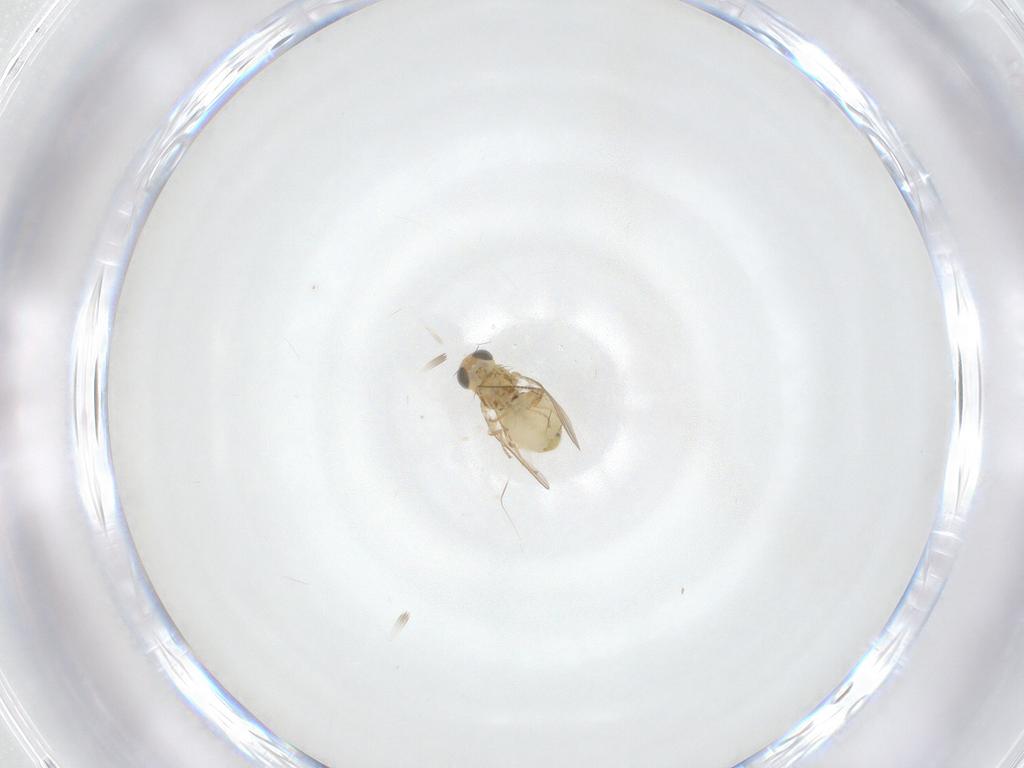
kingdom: Animalia
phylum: Arthropoda
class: Insecta
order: Diptera
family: Chyromyidae
